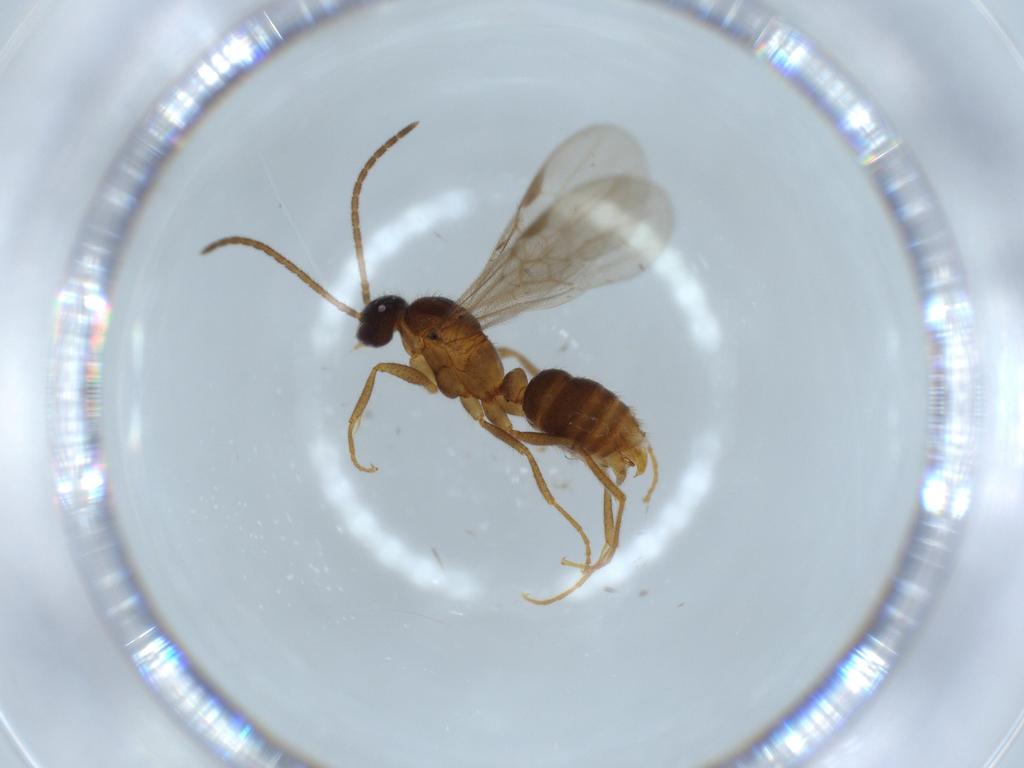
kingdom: Animalia
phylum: Arthropoda
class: Insecta
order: Hymenoptera
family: Formicidae
